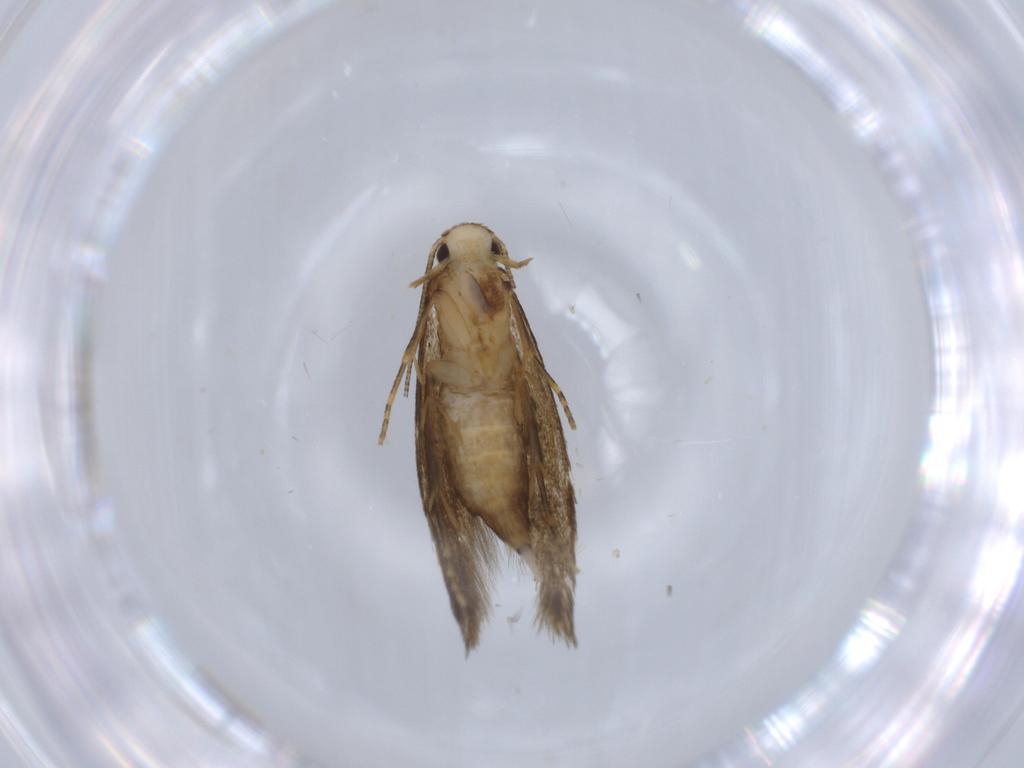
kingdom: Animalia
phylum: Arthropoda
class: Insecta
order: Lepidoptera
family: Tineidae
